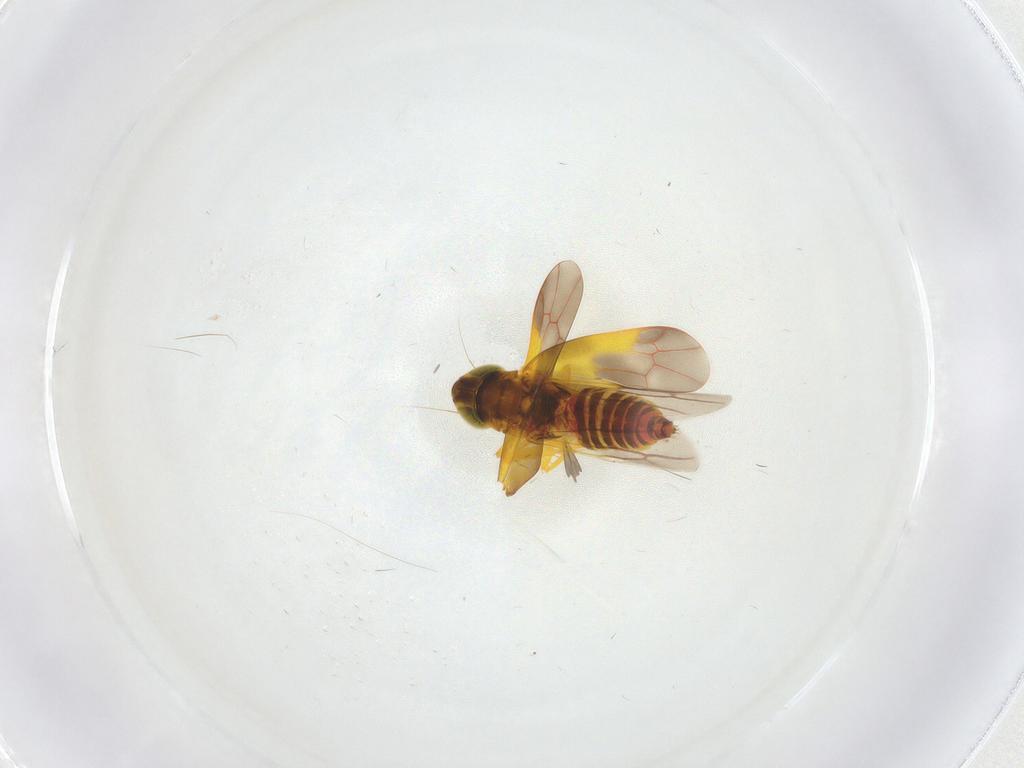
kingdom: Animalia
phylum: Arthropoda
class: Insecta
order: Hemiptera
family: Cicadellidae
